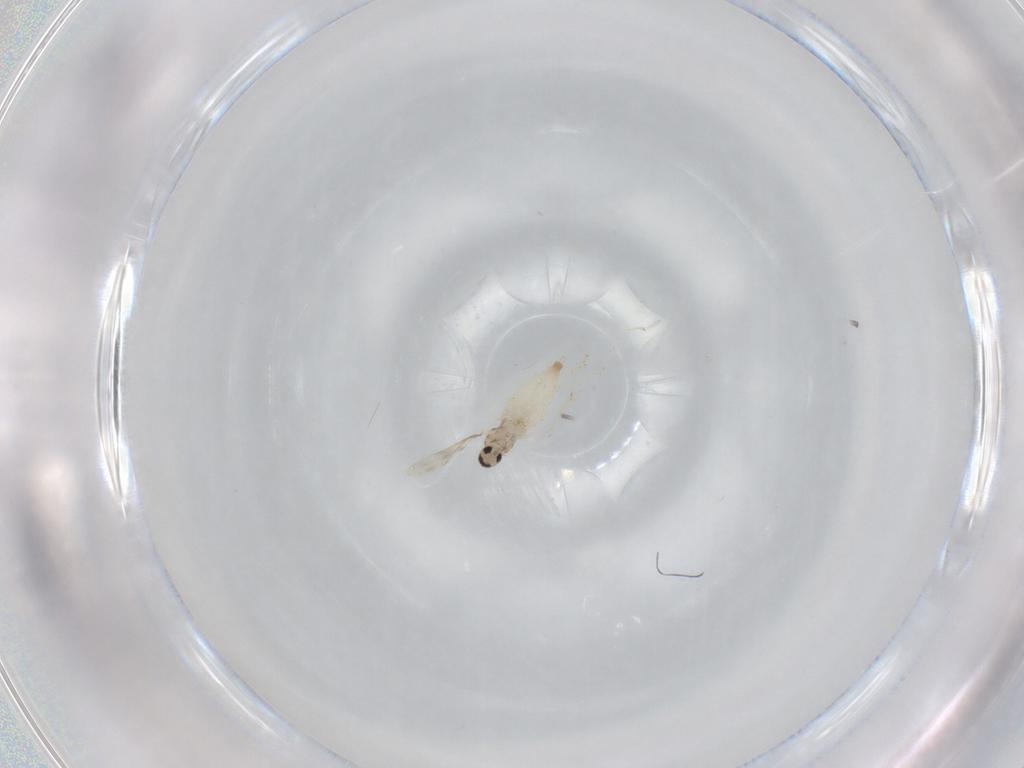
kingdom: Animalia
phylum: Arthropoda
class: Insecta
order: Diptera
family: Cecidomyiidae
